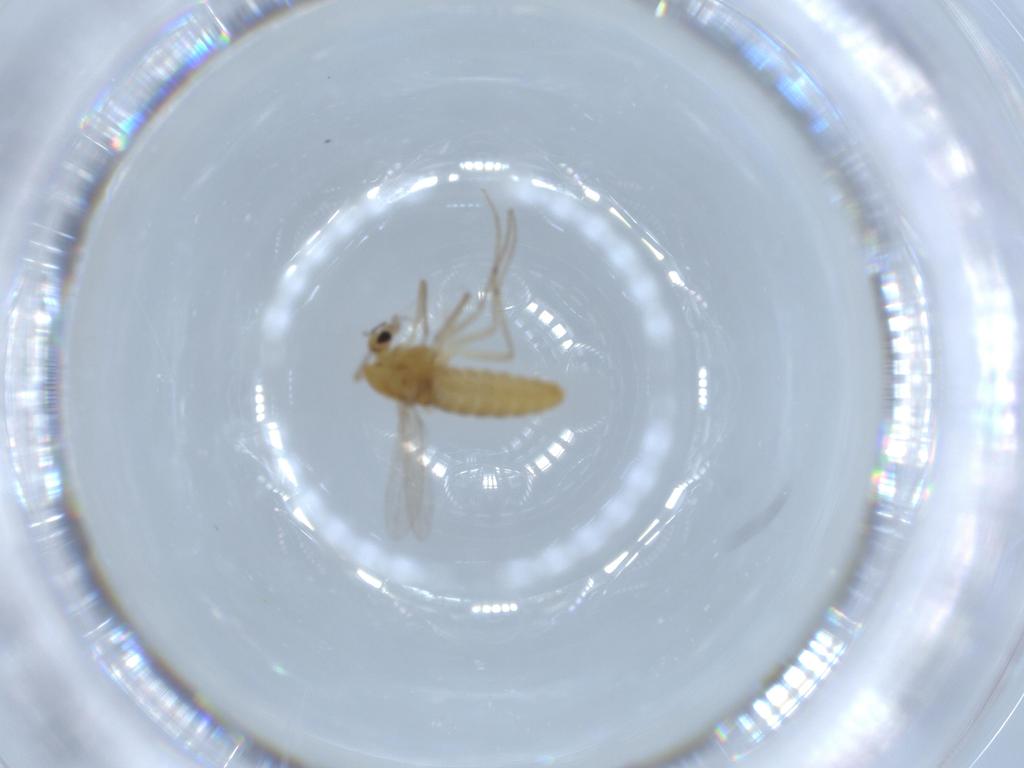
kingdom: Animalia
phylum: Arthropoda
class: Insecta
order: Diptera
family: Chironomidae
